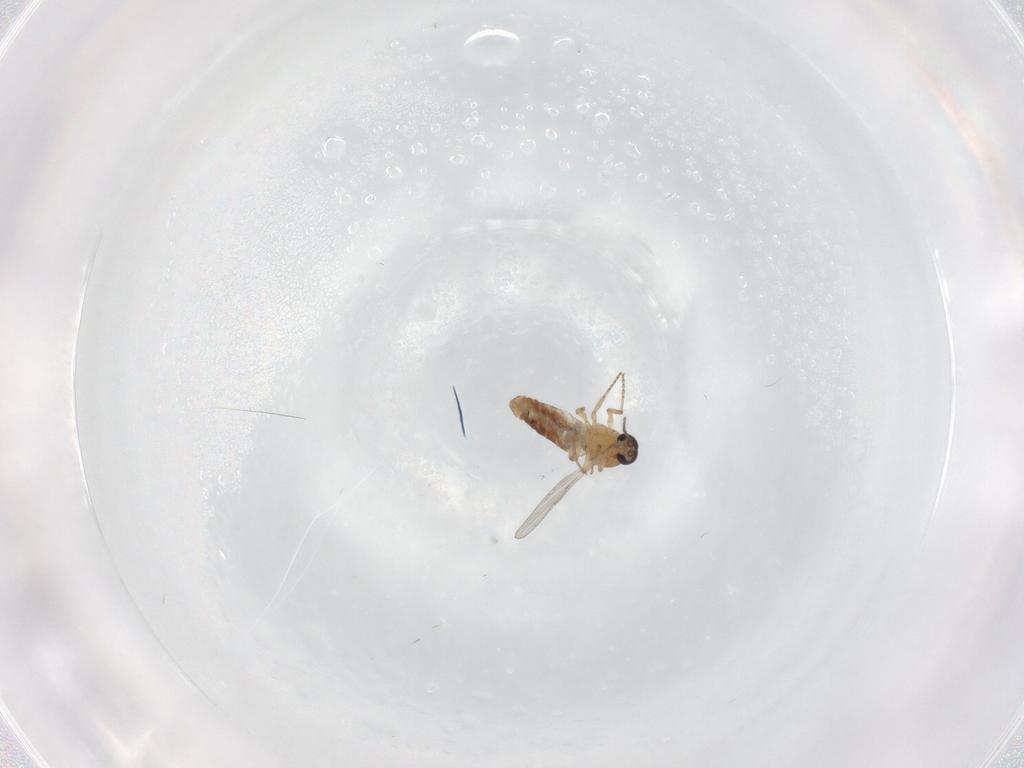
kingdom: Animalia
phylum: Arthropoda
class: Insecta
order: Diptera
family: Ceratopogonidae
